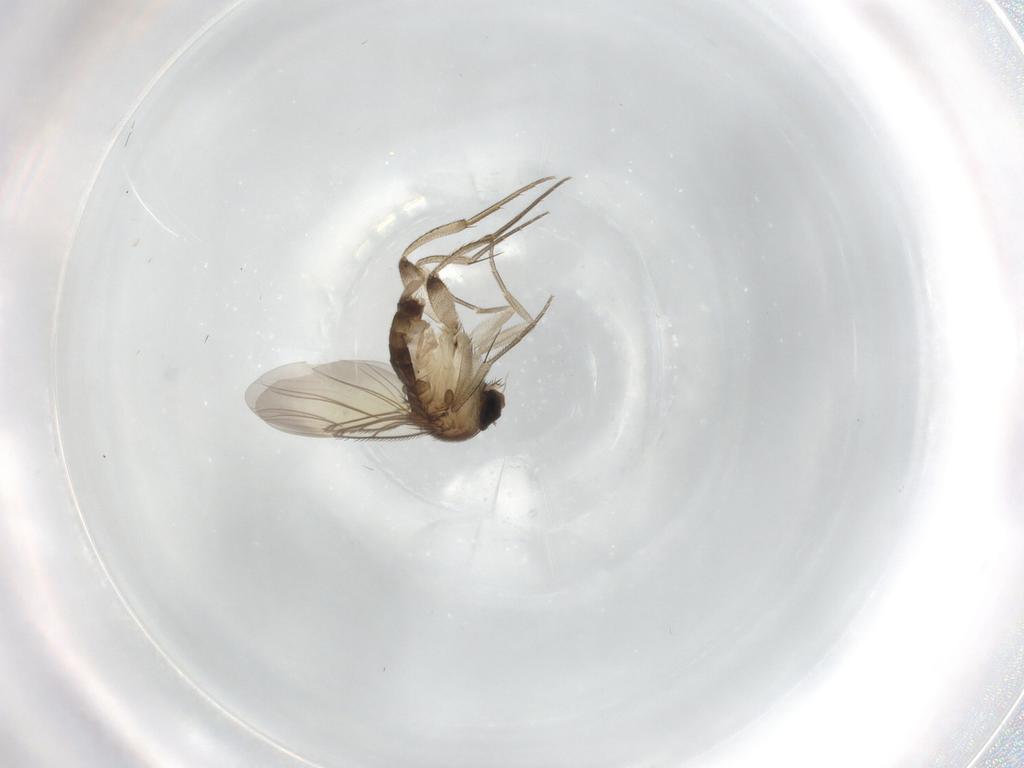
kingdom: Animalia
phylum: Arthropoda
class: Insecta
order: Diptera
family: Phoridae
